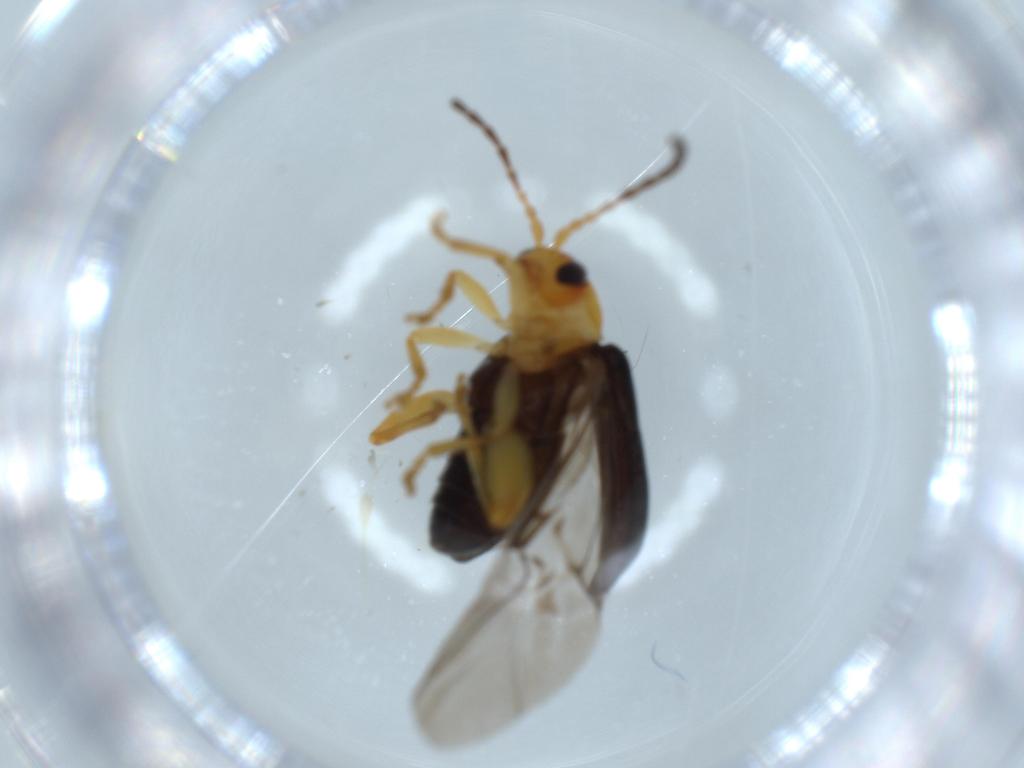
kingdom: Animalia
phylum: Arthropoda
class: Insecta
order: Coleoptera
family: Chrysomelidae
